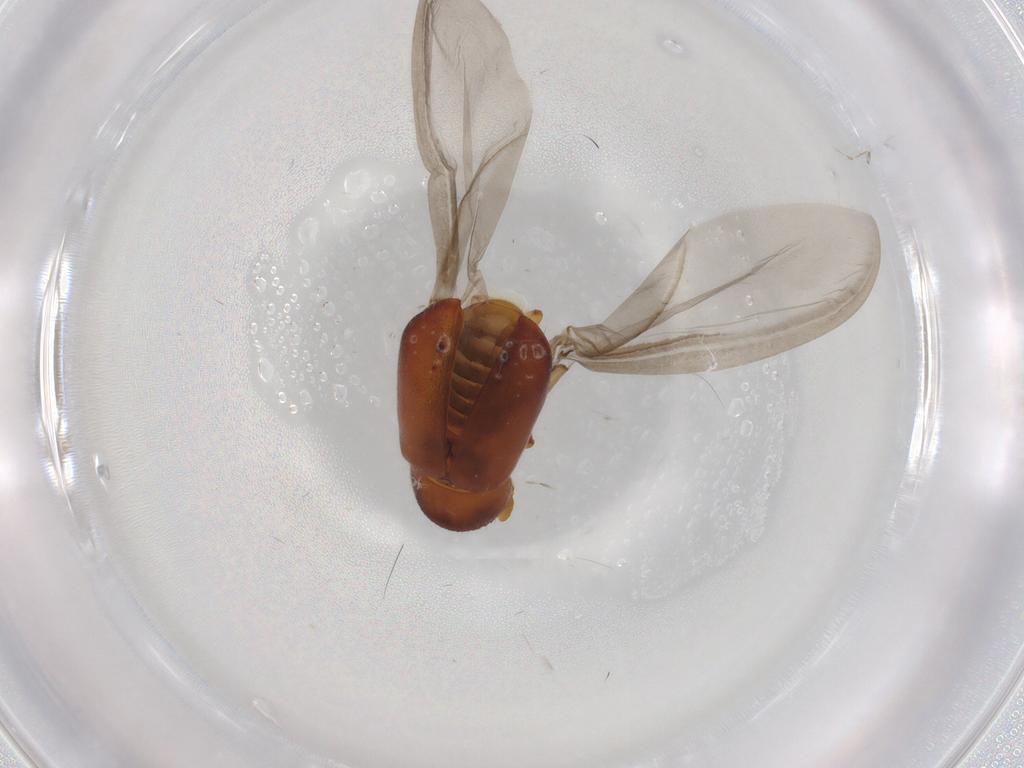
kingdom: Animalia
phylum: Arthropoda
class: Insecta
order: Coleoptera
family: Curculionidae
